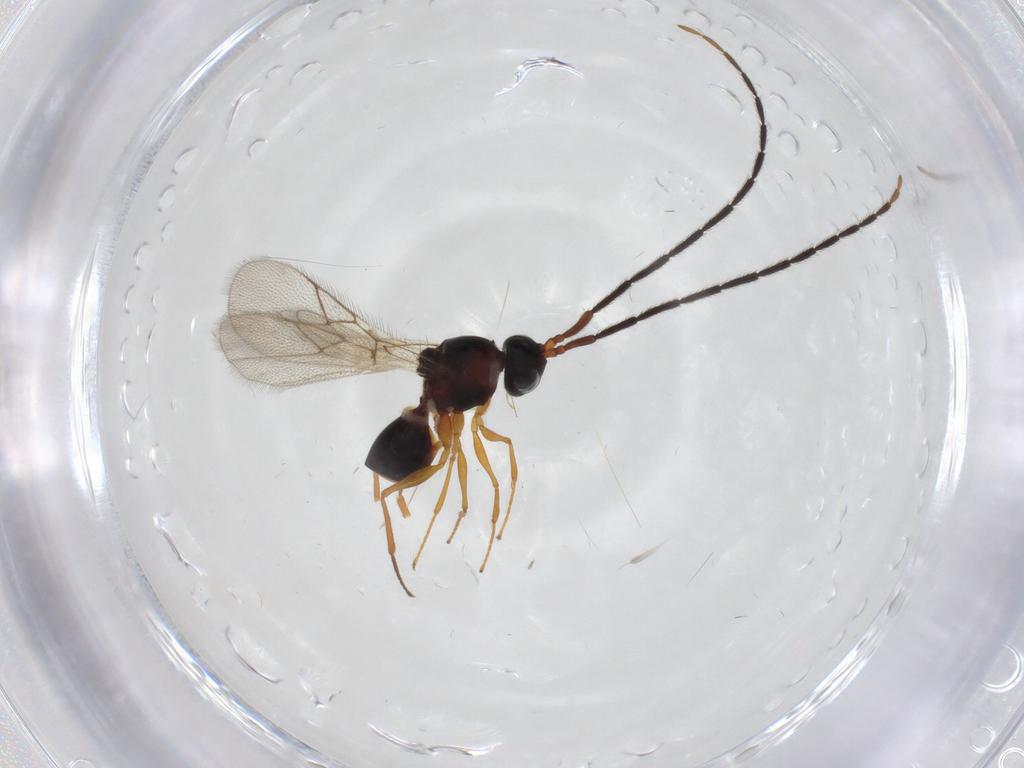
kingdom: Animalia
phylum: Arthropoda
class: Insecta
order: Hymenoptera
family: Figitidae
